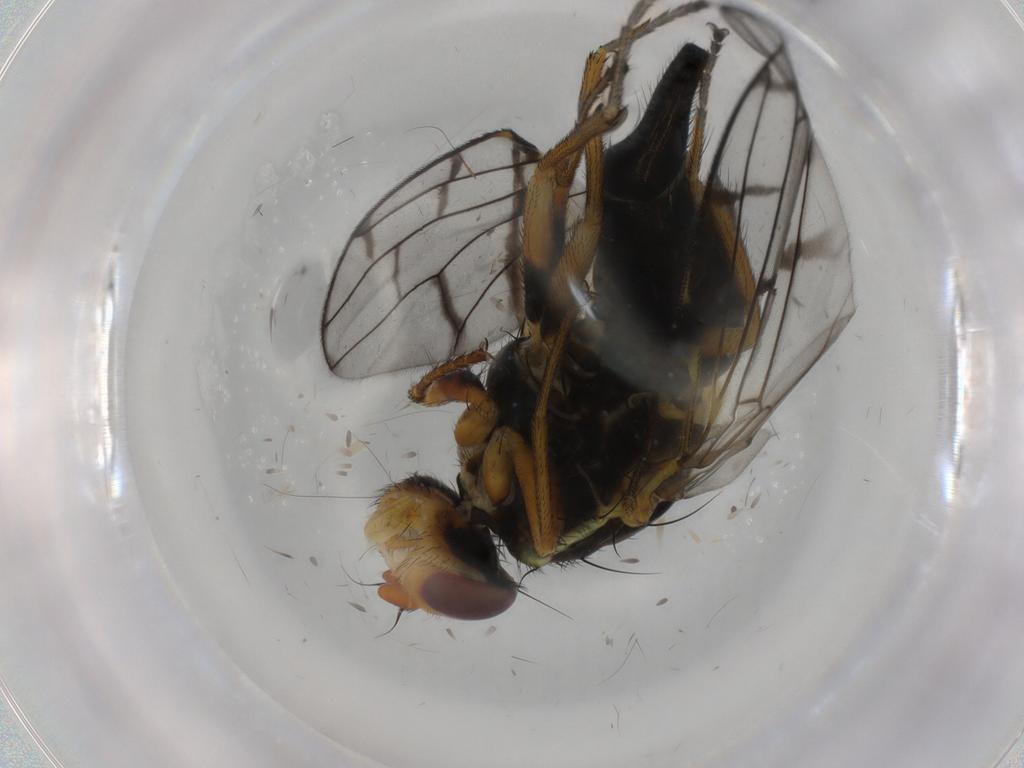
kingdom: Animalia
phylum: Arthropoda
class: Insecta
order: Diptera
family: Tephritidae
